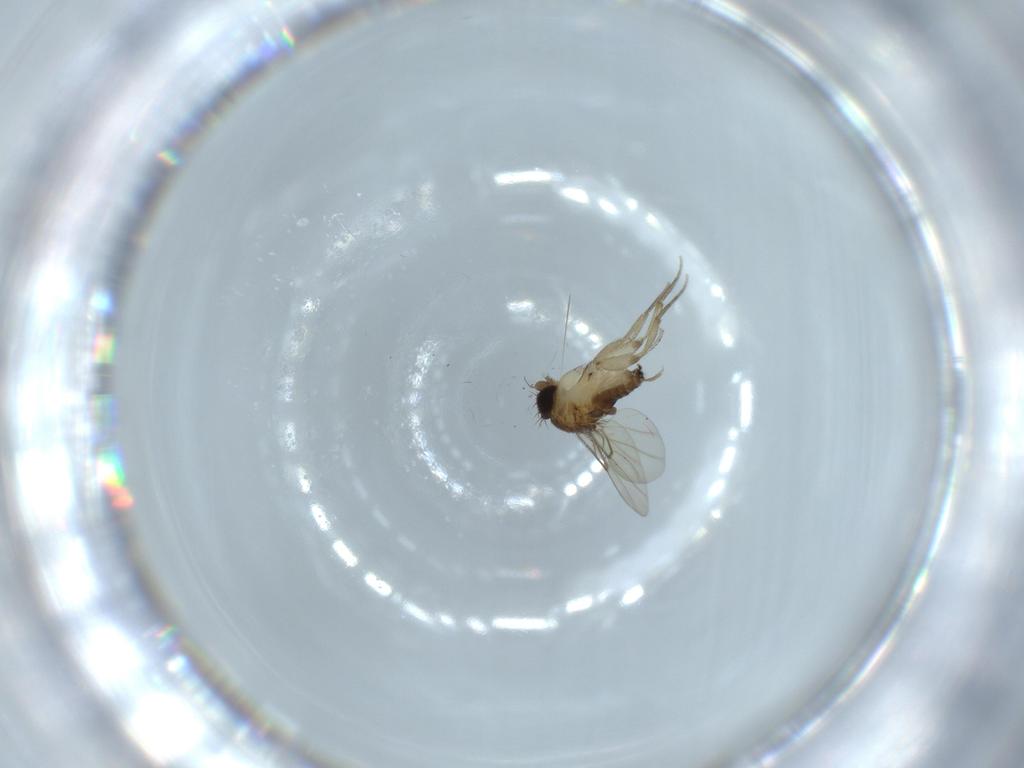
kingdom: Animalia
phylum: Arthropoda
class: Insecta
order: Diptera
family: Phoridae
